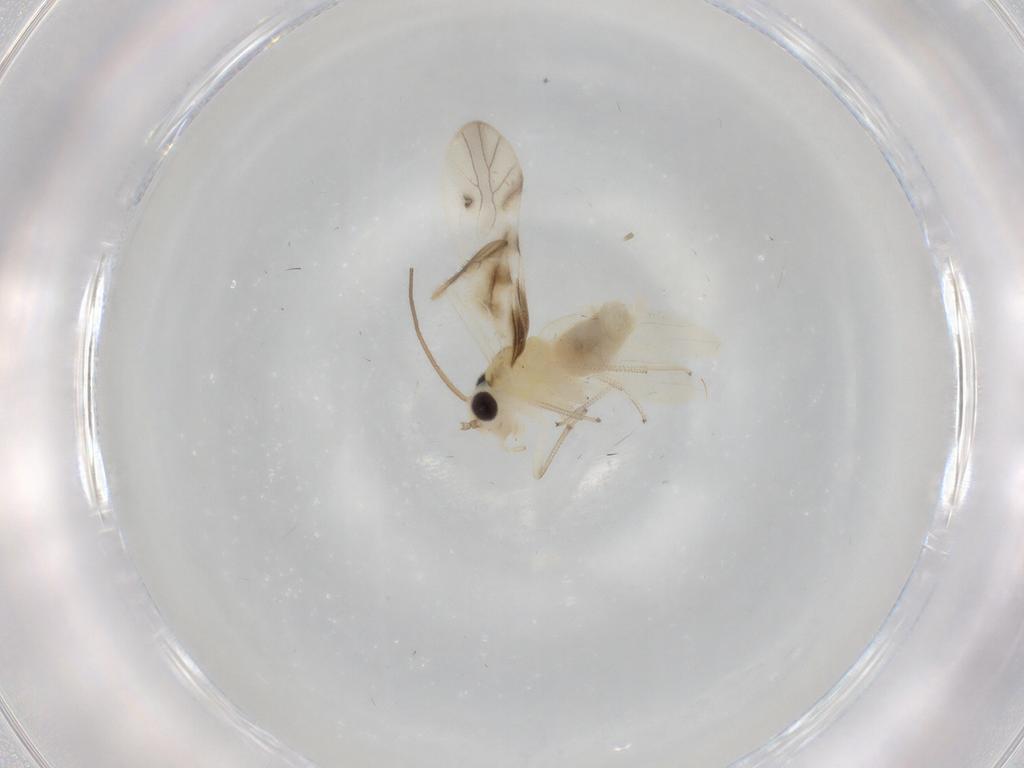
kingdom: Animalia
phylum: Arthropoda
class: Insecta
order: Psocodea
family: Caeciliusidae
